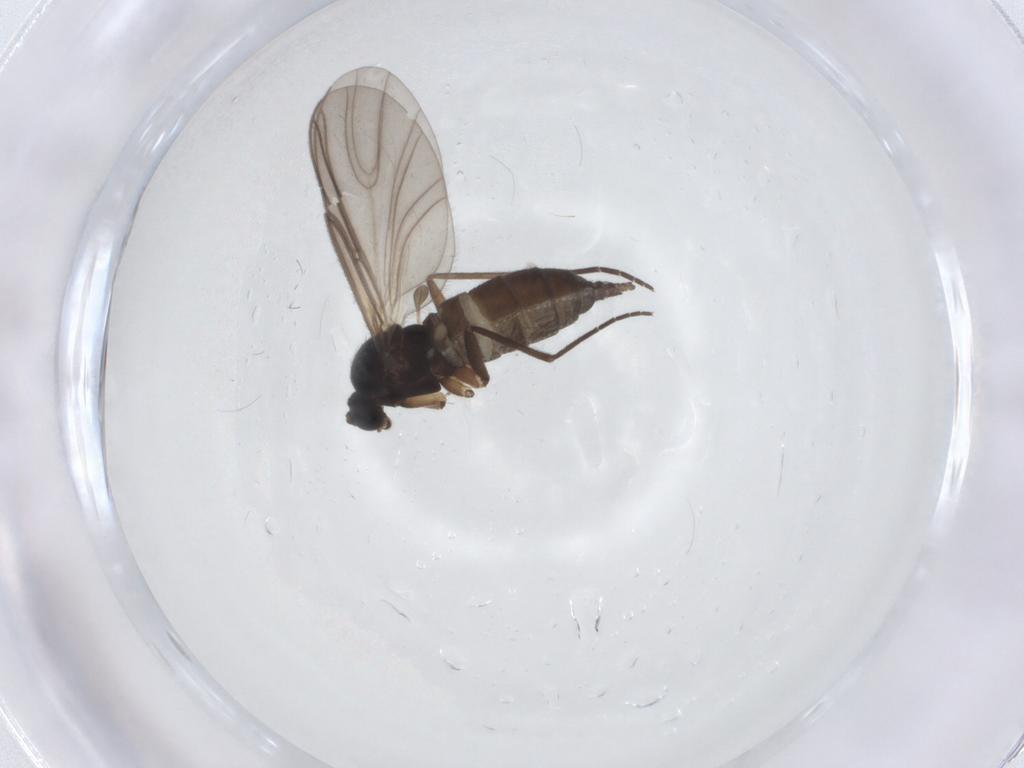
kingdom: Animalia
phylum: Arthropoda
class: Insecta
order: Diptera
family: Sciaridae
